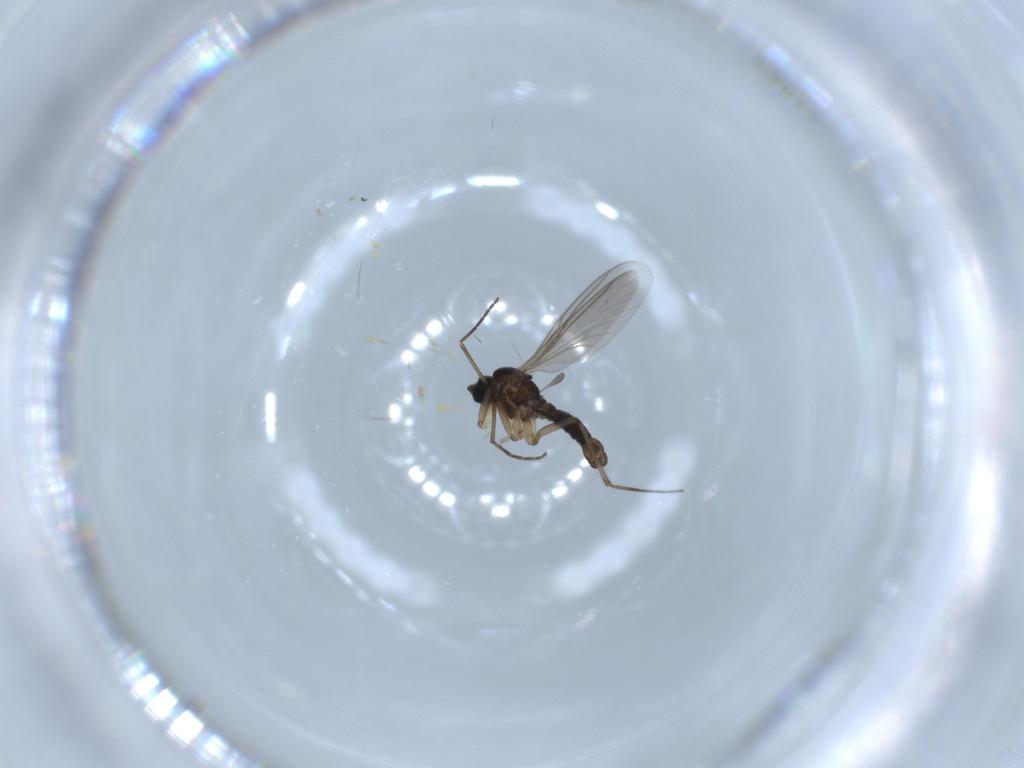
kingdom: Animalia
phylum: Arthropoda
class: Insecta
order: Diptera
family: Sciaridae
